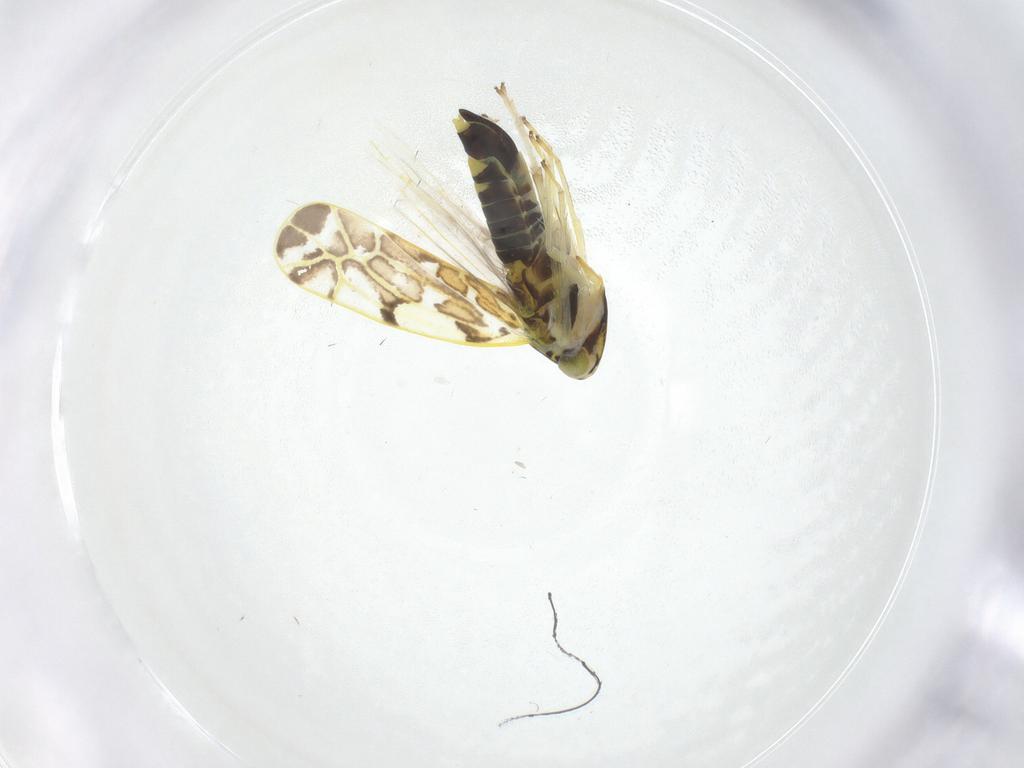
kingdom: Animalia
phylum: Arthropoda
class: Insecta
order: Hemiptera
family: Cicadellidae
